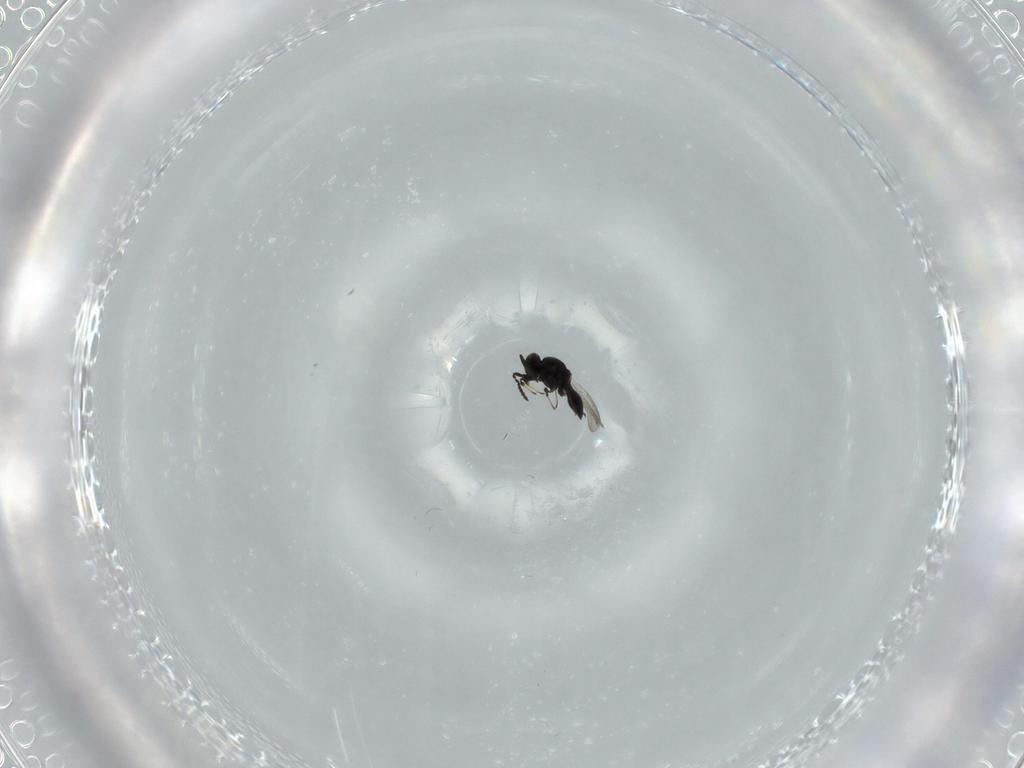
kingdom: Animalia
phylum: Arthropoda
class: Insecta
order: Hymenoptera
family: Platygastridae
